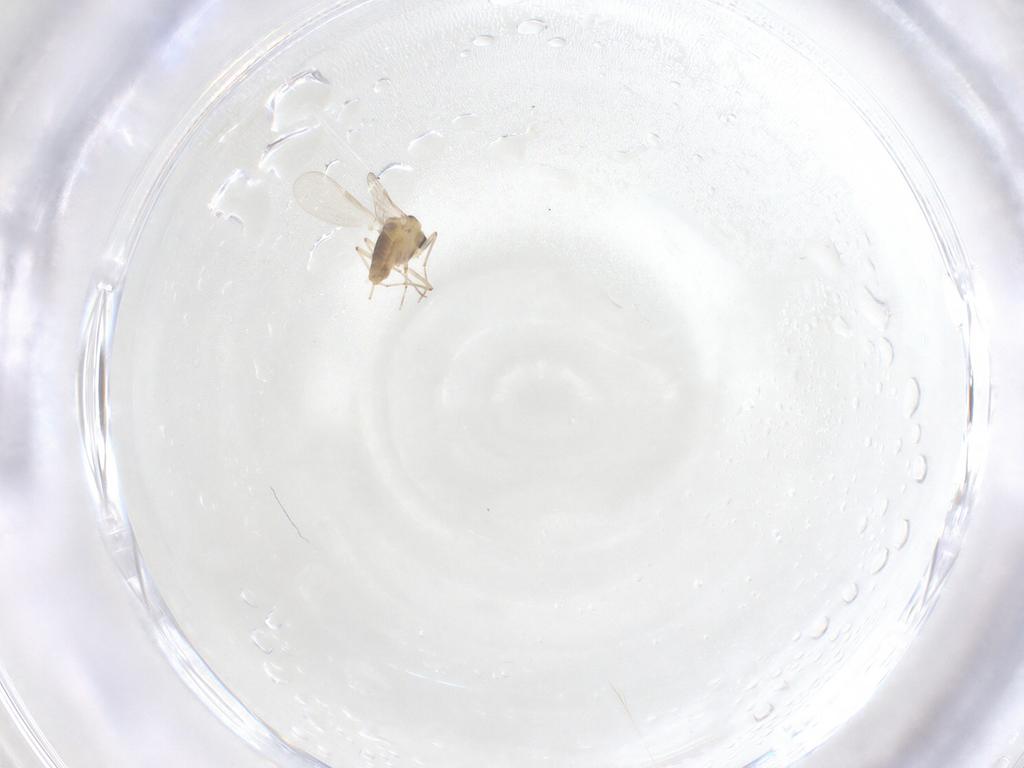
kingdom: Animalia
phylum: Arthropoda
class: Insecta
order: Diptera
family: Chironomidae
